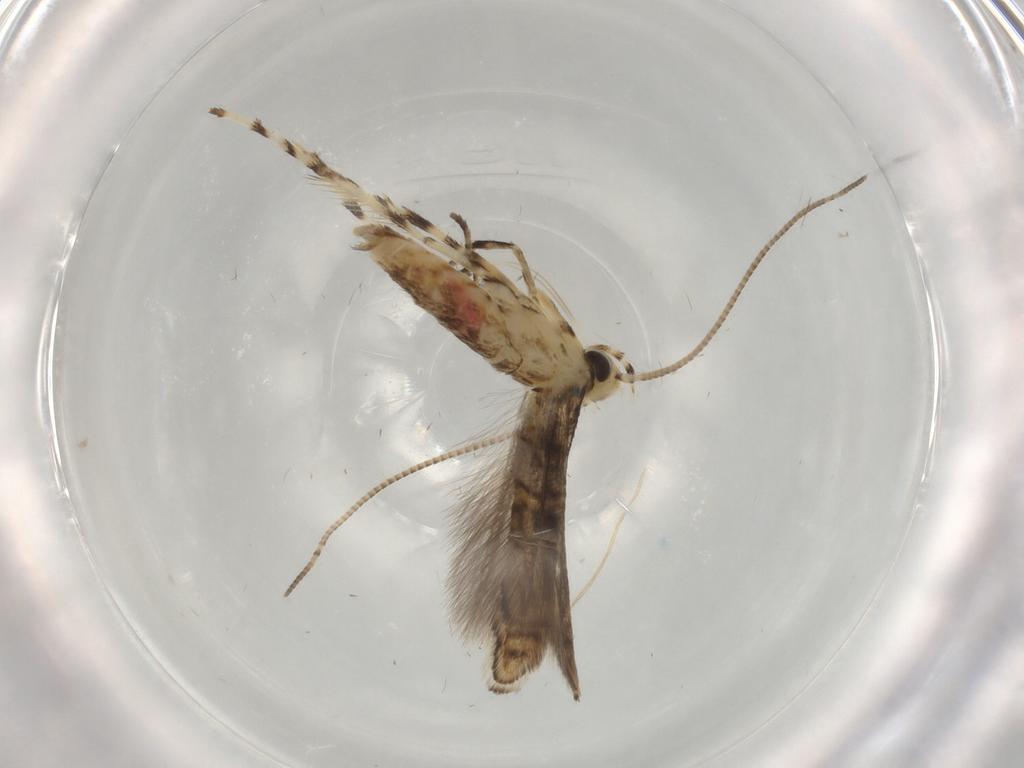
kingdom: Animalia
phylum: Arthropoda
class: Insecta
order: Lepidoptera
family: Gracillariidae
